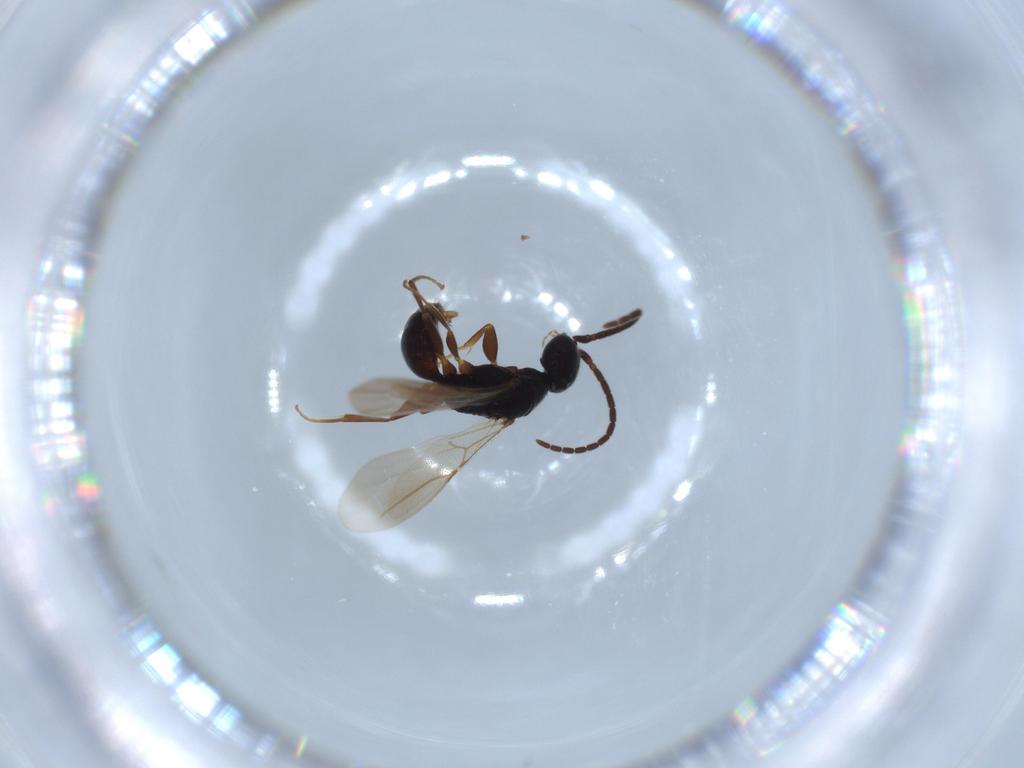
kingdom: Animalia
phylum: Arthropoda
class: Insecta
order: Hymenoptera
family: Bethylidae
